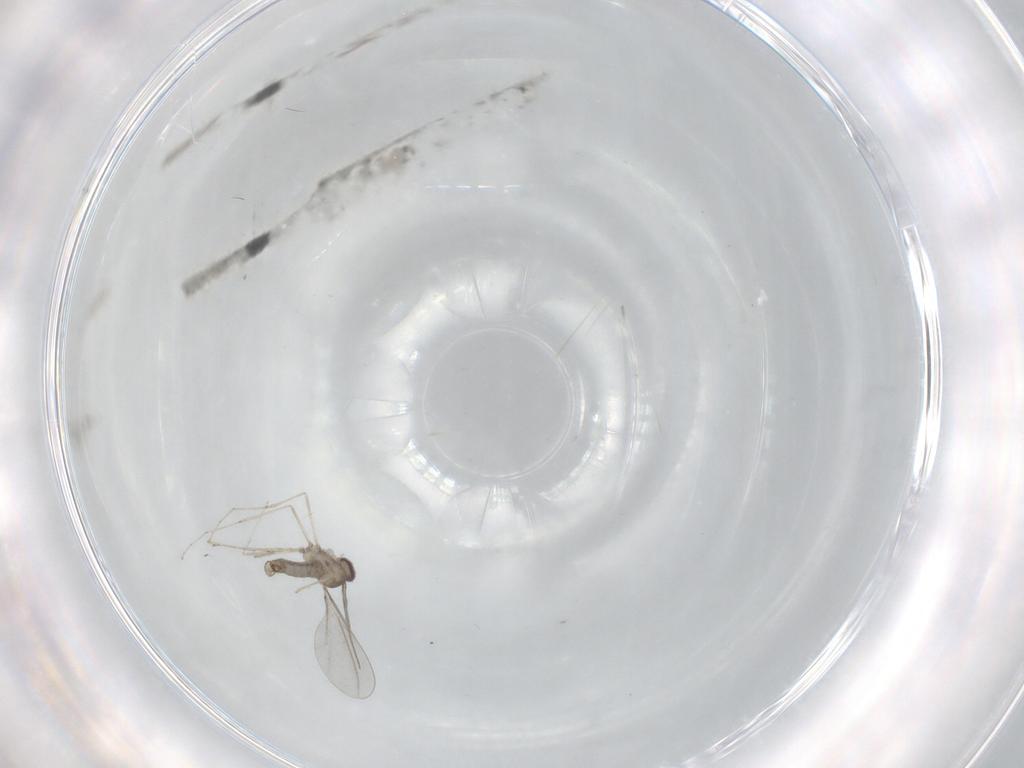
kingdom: Animalia
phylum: Arthropoda
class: Insecta
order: Diptera
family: Cecidomyiidae
